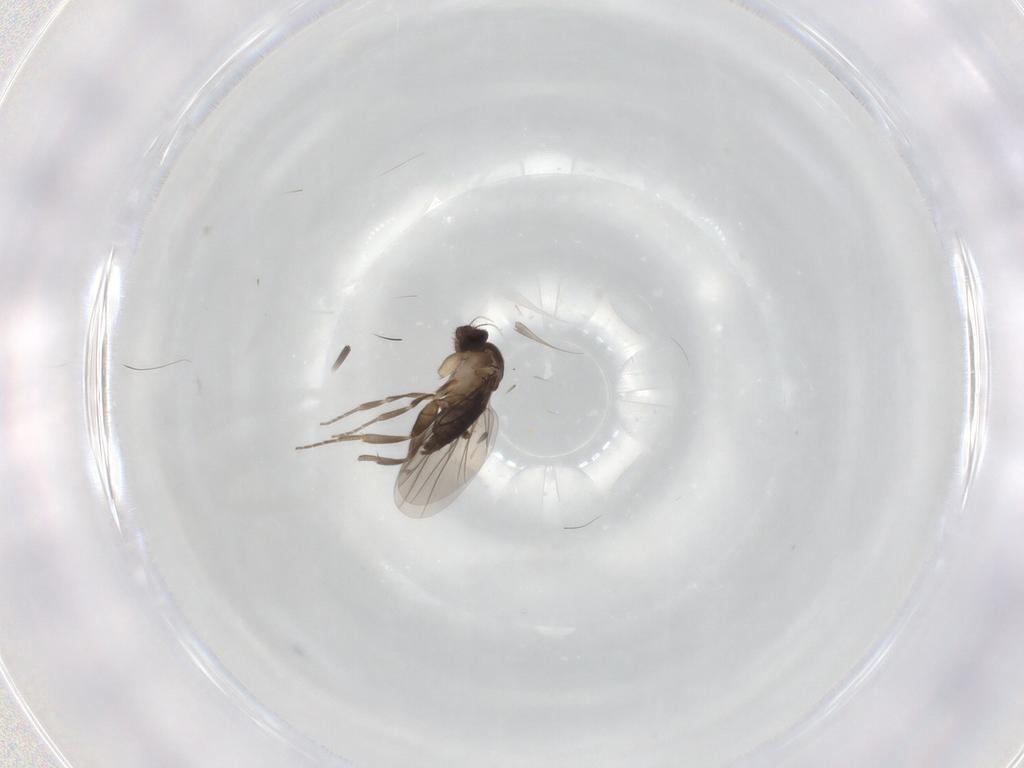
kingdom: Animalia
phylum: Arthropoda
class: Insecta
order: Diptera
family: Phoridae
